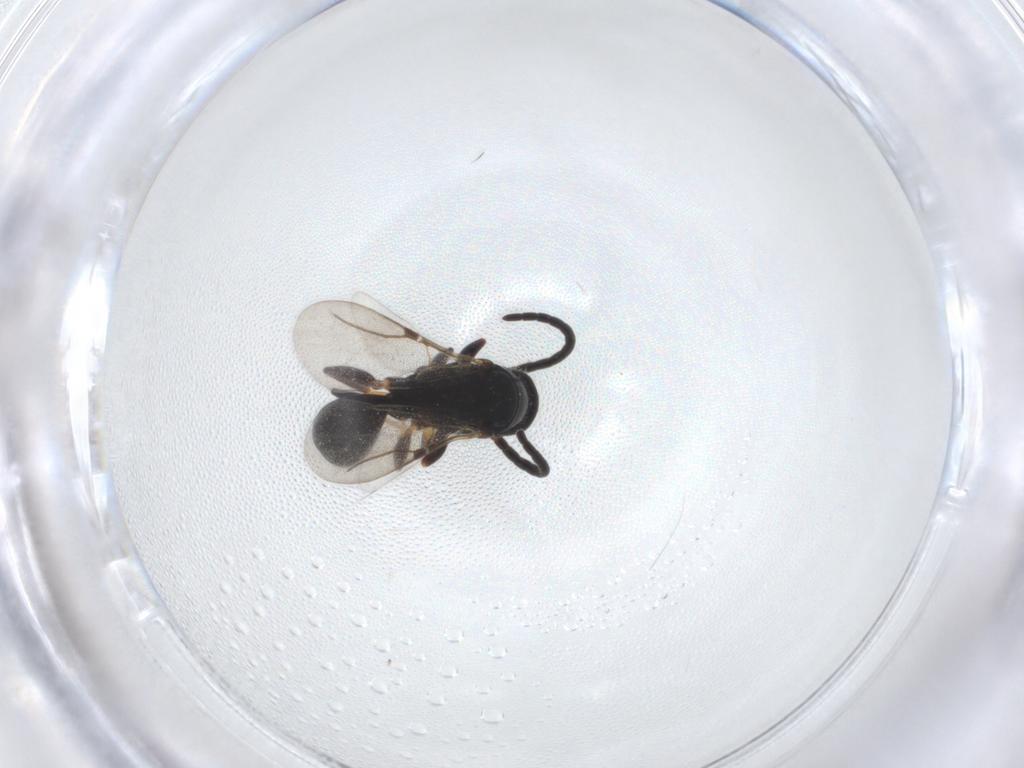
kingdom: Animalia
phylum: Arthropoda
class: Insecta
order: Hymenoptera
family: Bethylidae
